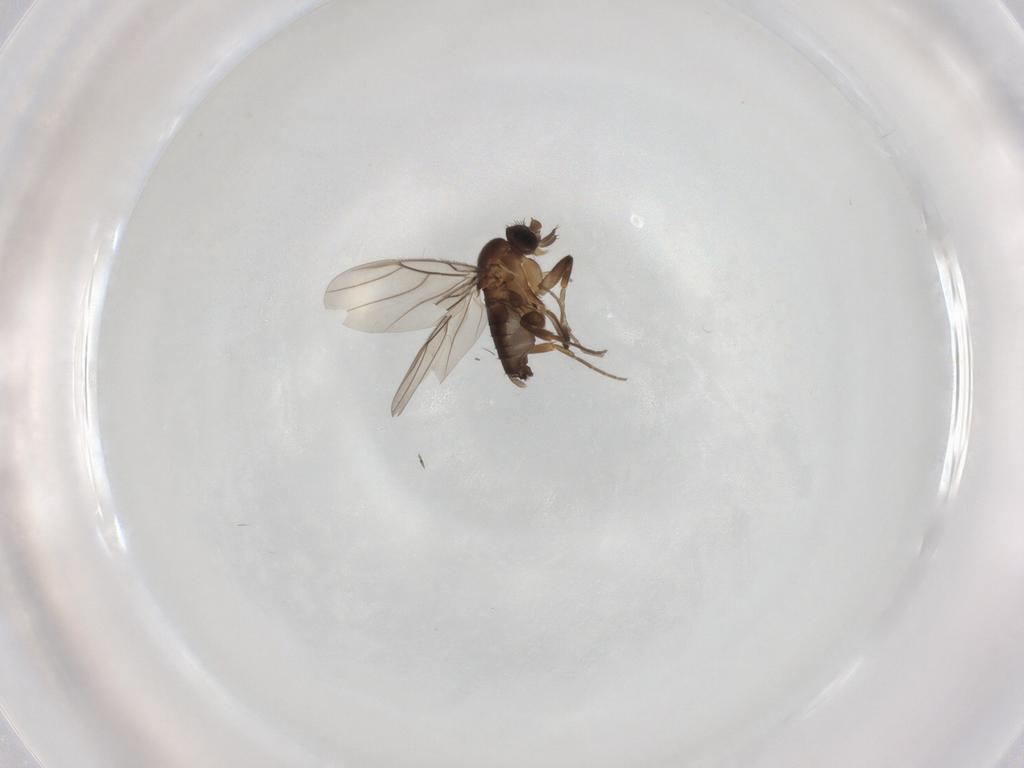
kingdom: Animalia
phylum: Arthropoda
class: Insecta
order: Diptera
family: Phoridae
